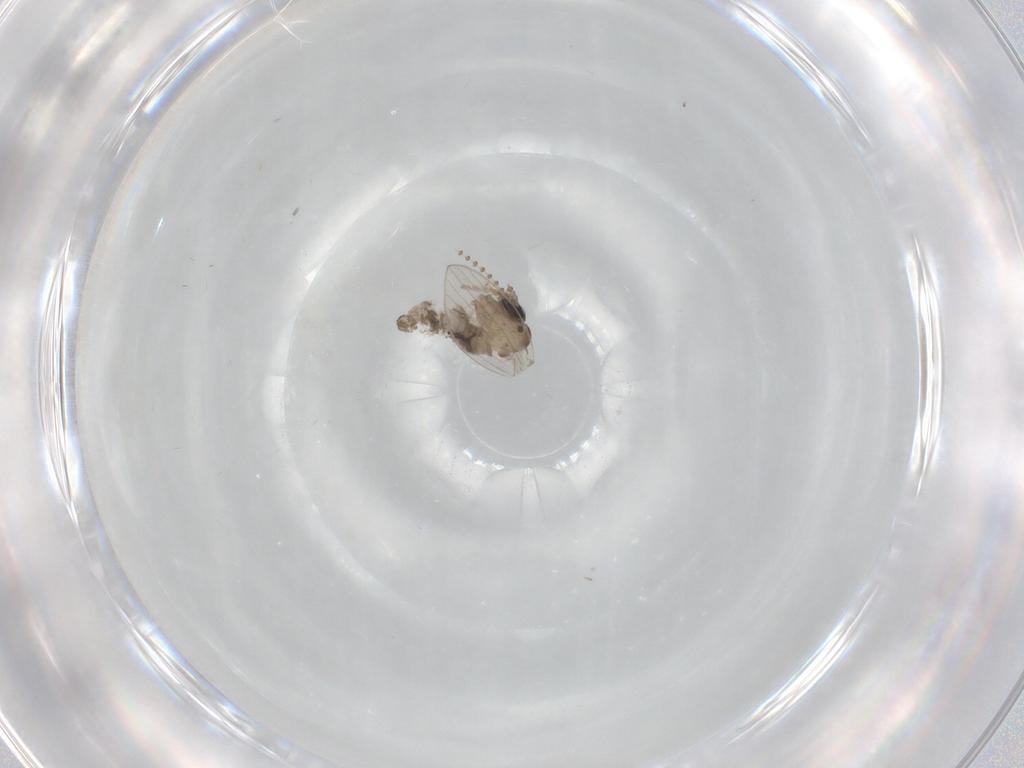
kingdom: Animalia
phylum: Arthropoda
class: Insecta
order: Diptera
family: Psychodidae
